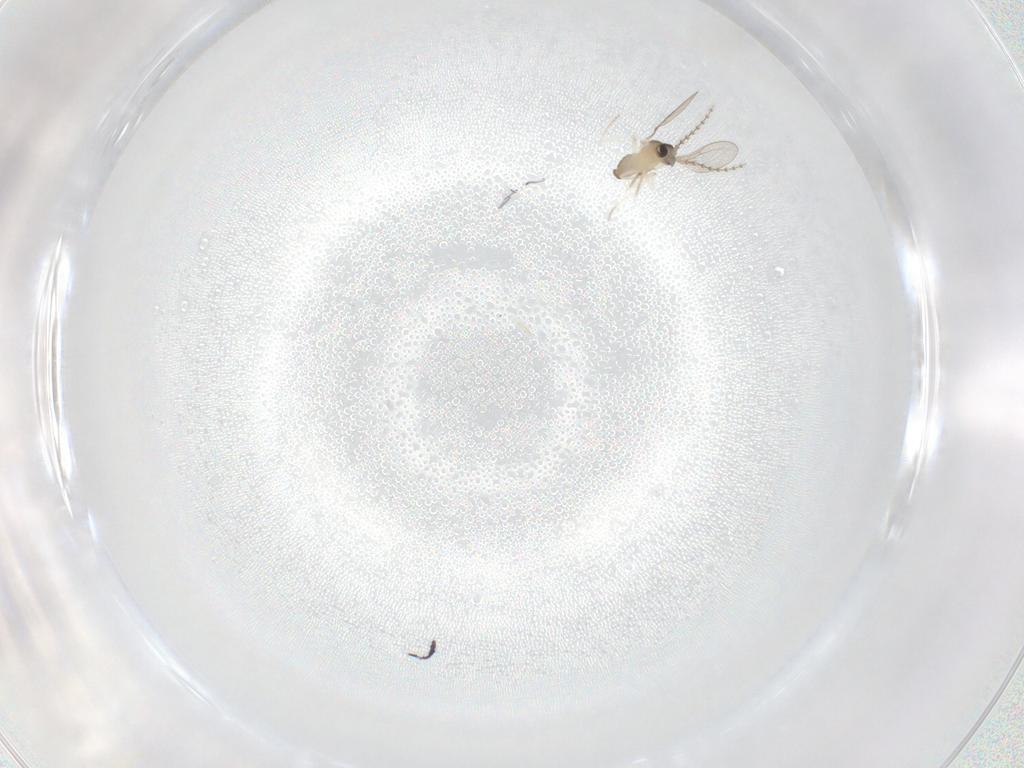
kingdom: Animalia
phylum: Arthropoda
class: Insecta
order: Diptera
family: Cecidomyiidae
